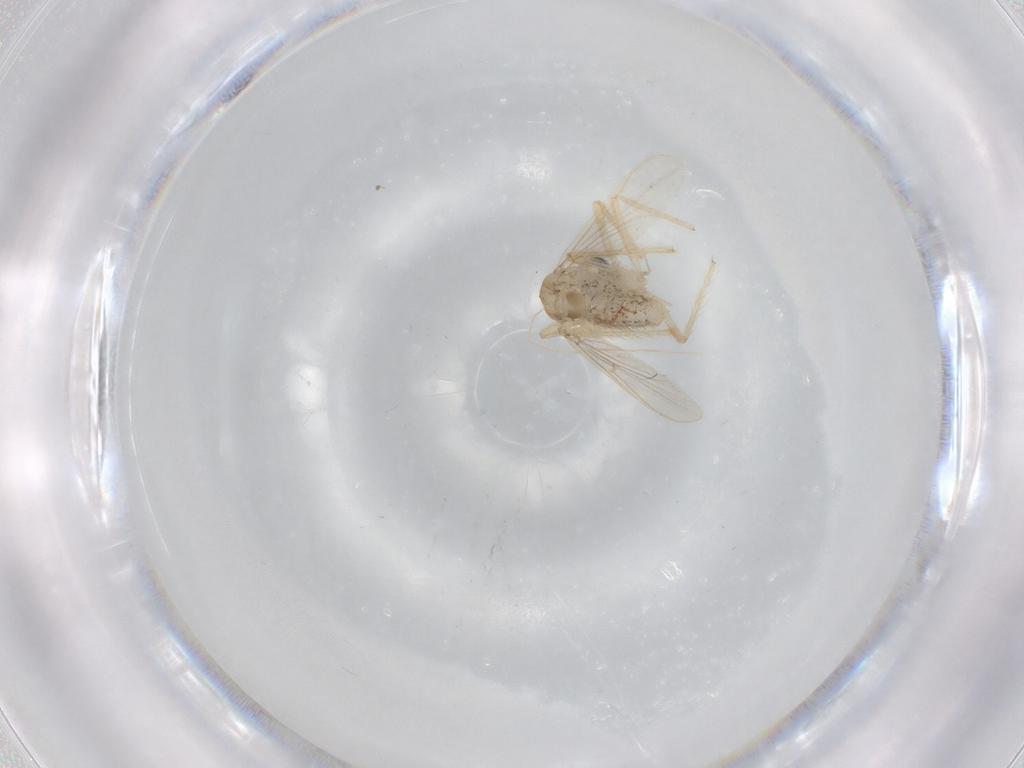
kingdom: Animalia
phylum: Arthropoda
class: Insecta
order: Diptera
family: Chironomidae
